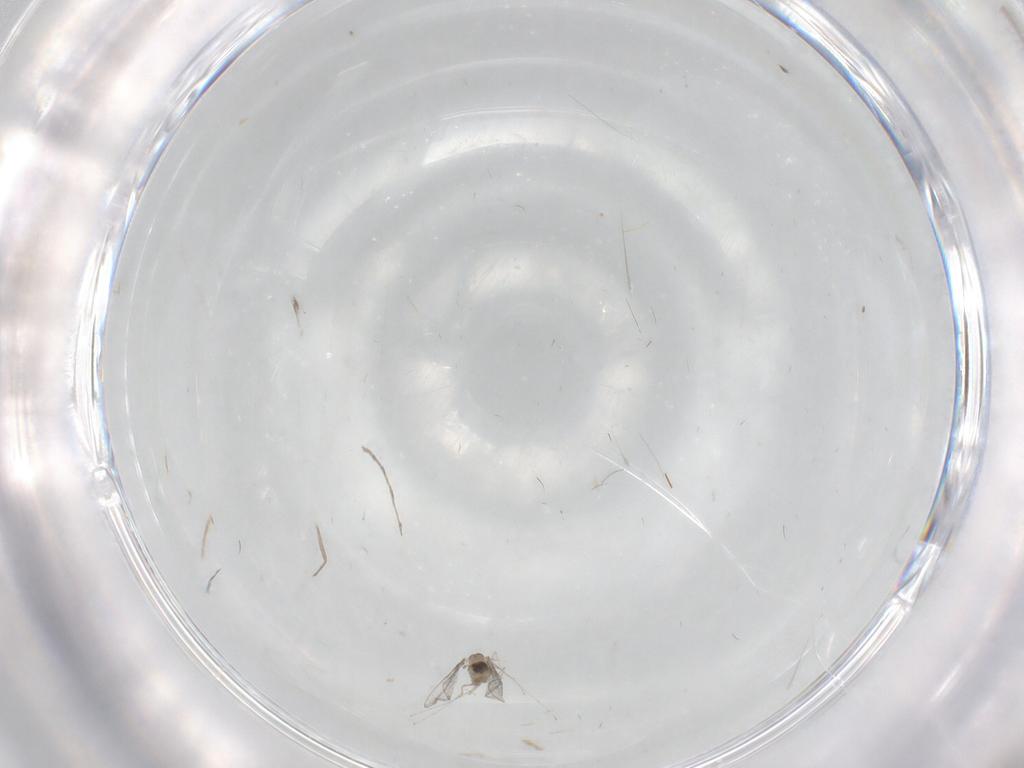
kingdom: Animalia
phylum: Arthropoda
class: Insecta
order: Diptera
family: Cecidomyiidae
